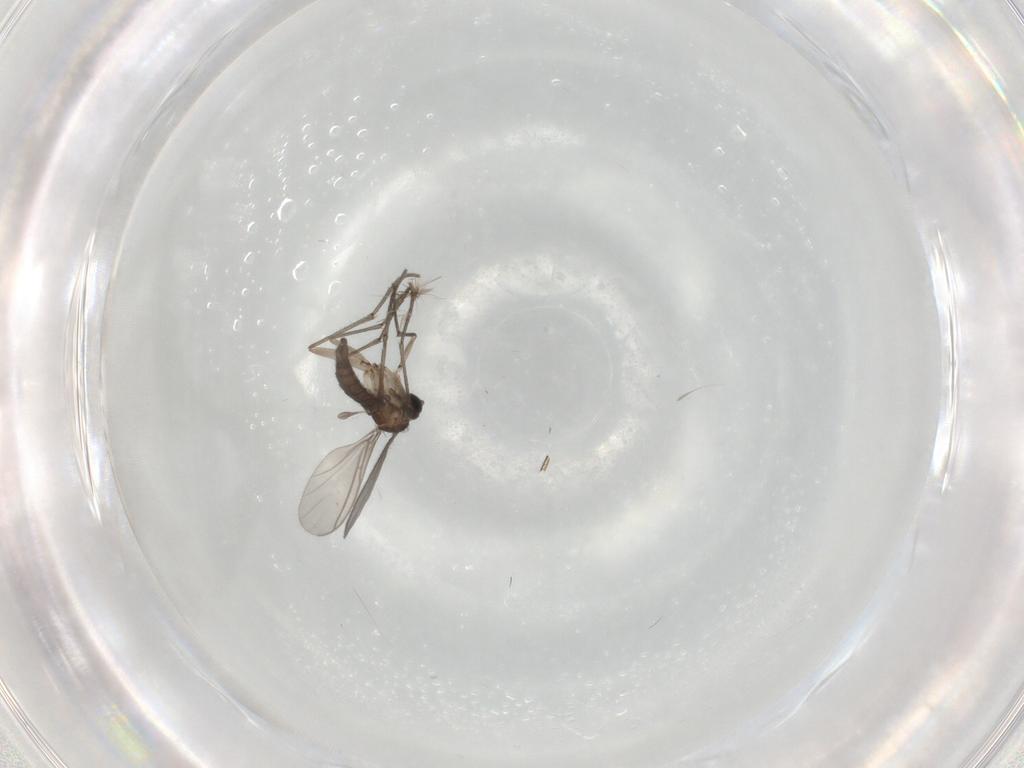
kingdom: Animalia
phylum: Arthropoda
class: Insecta
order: Diptera
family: Sciaridae
